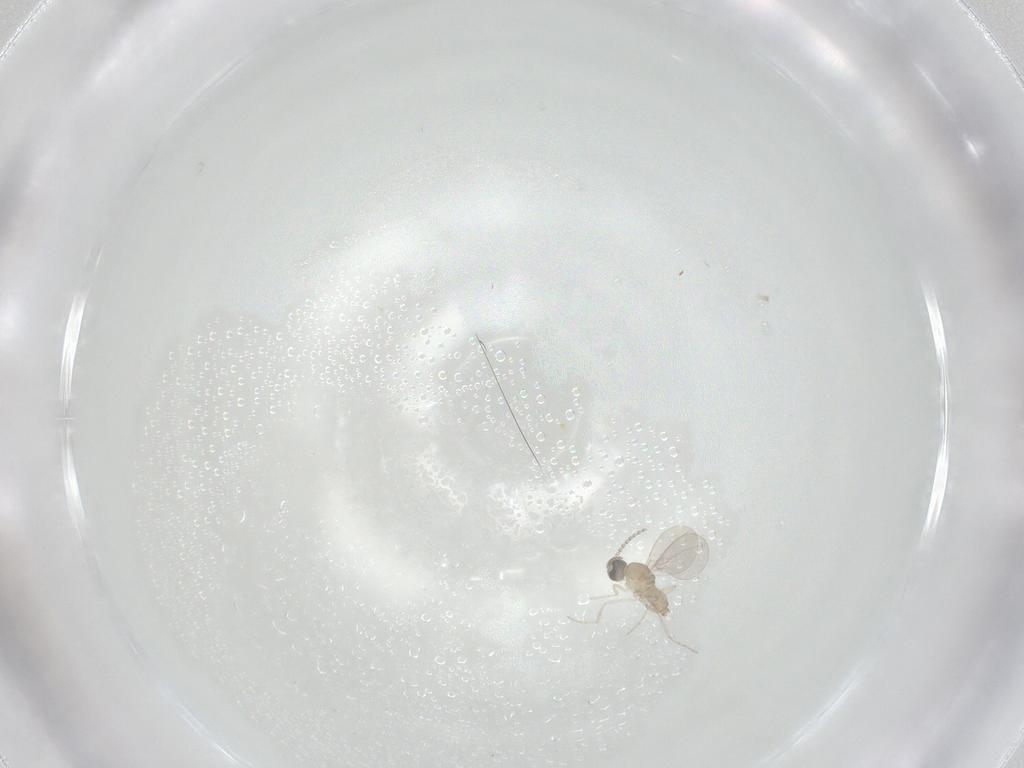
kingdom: Animalia
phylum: Arthropoda
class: Insecta
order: Diptera
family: Cecidomyiidae
